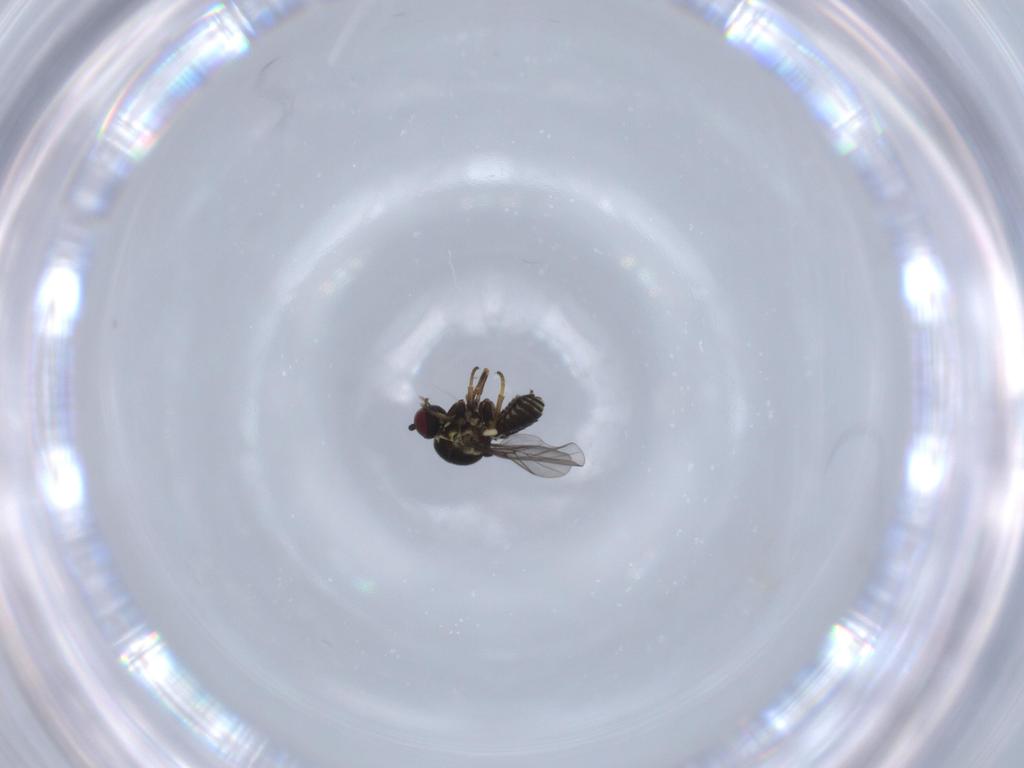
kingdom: Animalia
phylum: Arthropoda
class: Insecta
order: Diptera
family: Bombyliidae
